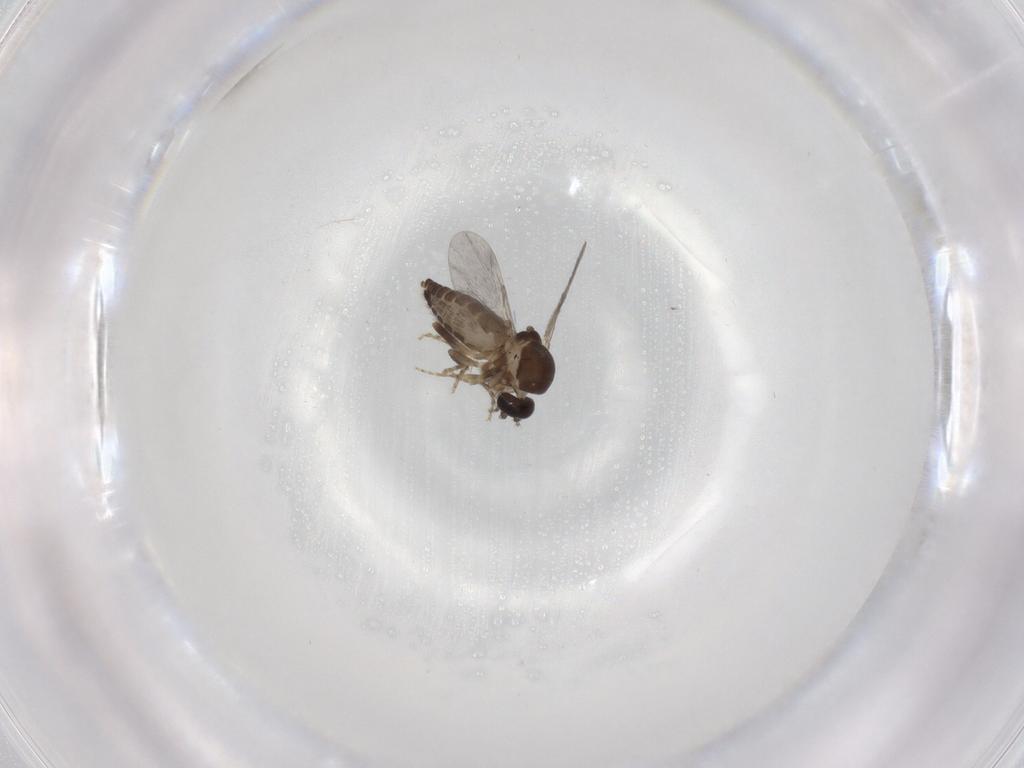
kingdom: Animalia
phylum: Arthropoda
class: Insecta
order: Diptera
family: Ceratopogonidae
